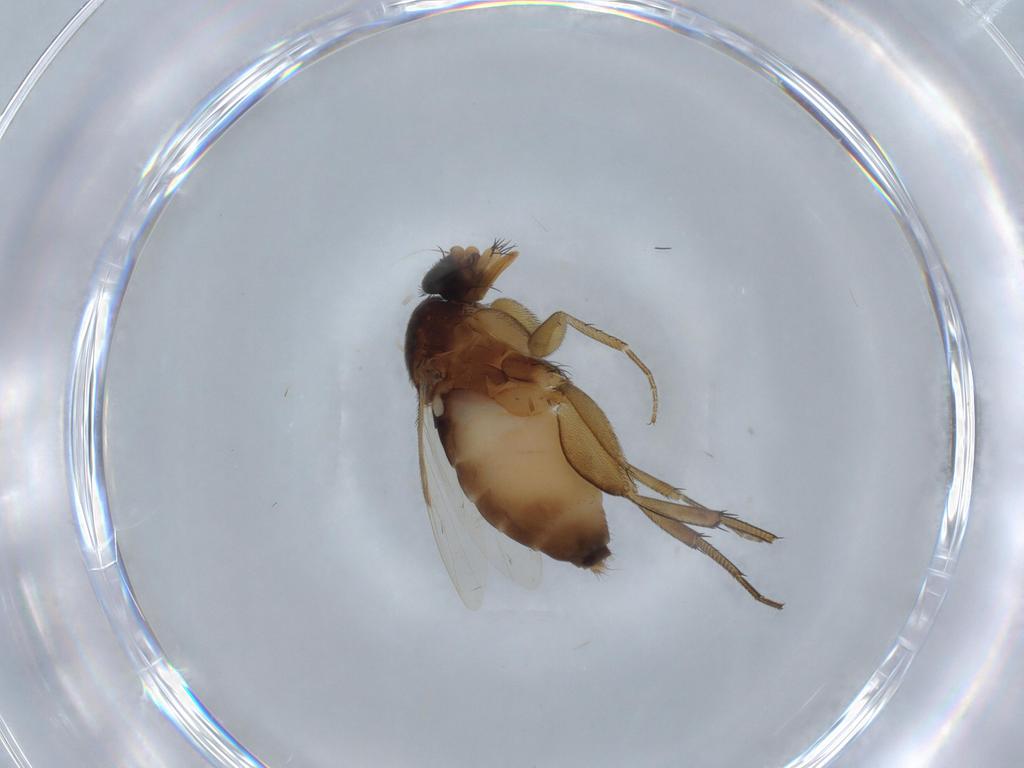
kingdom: Animalia
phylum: Arthropoda
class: Insecta
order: Diptera
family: Phoridae
